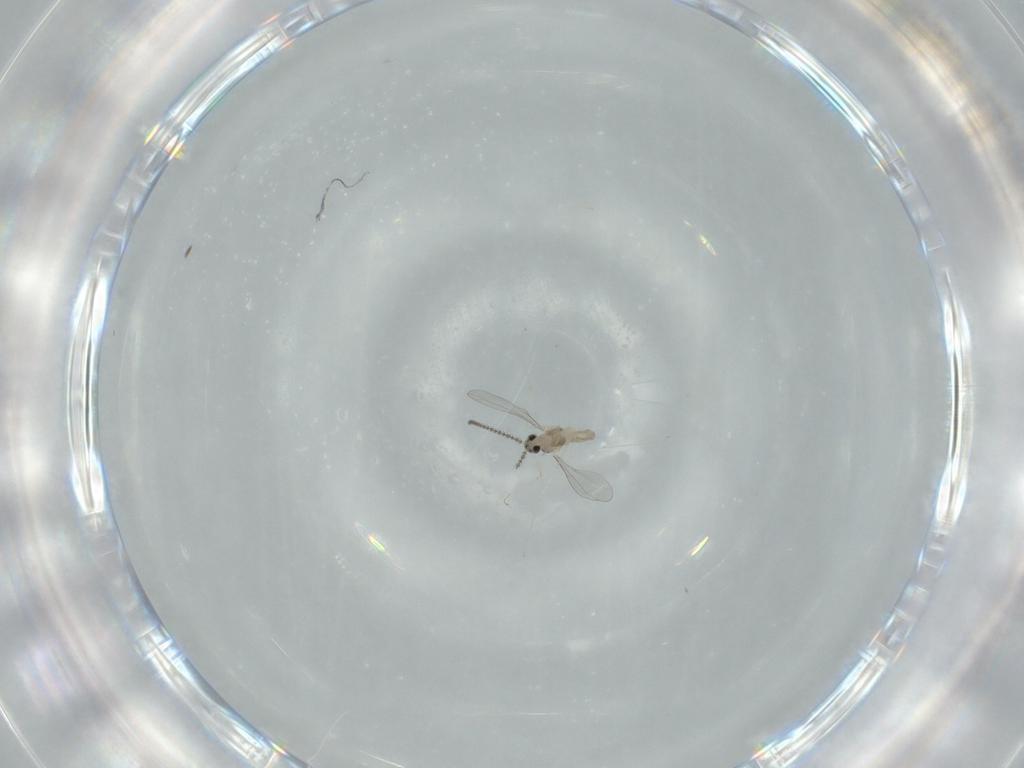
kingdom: Animalia
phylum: Arthropoda
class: Insecta
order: Diptera
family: Cecidomyiidae
